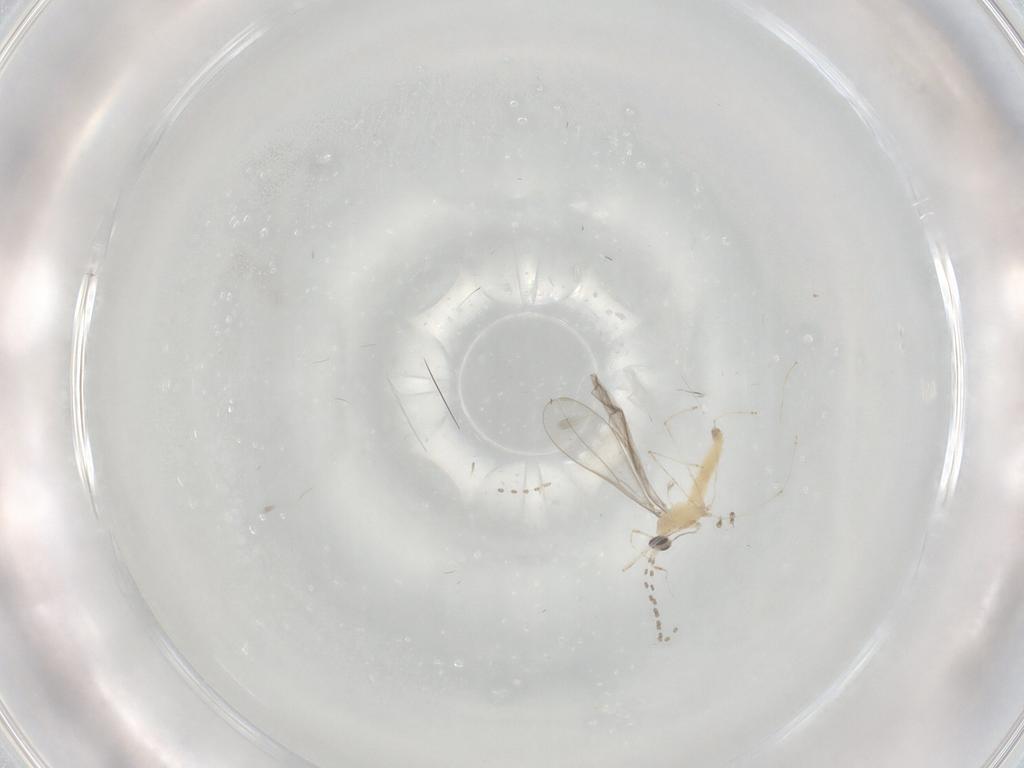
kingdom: Animalia
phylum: Arthropoda
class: Insecta
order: Diptera
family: Cecidomyiidae
